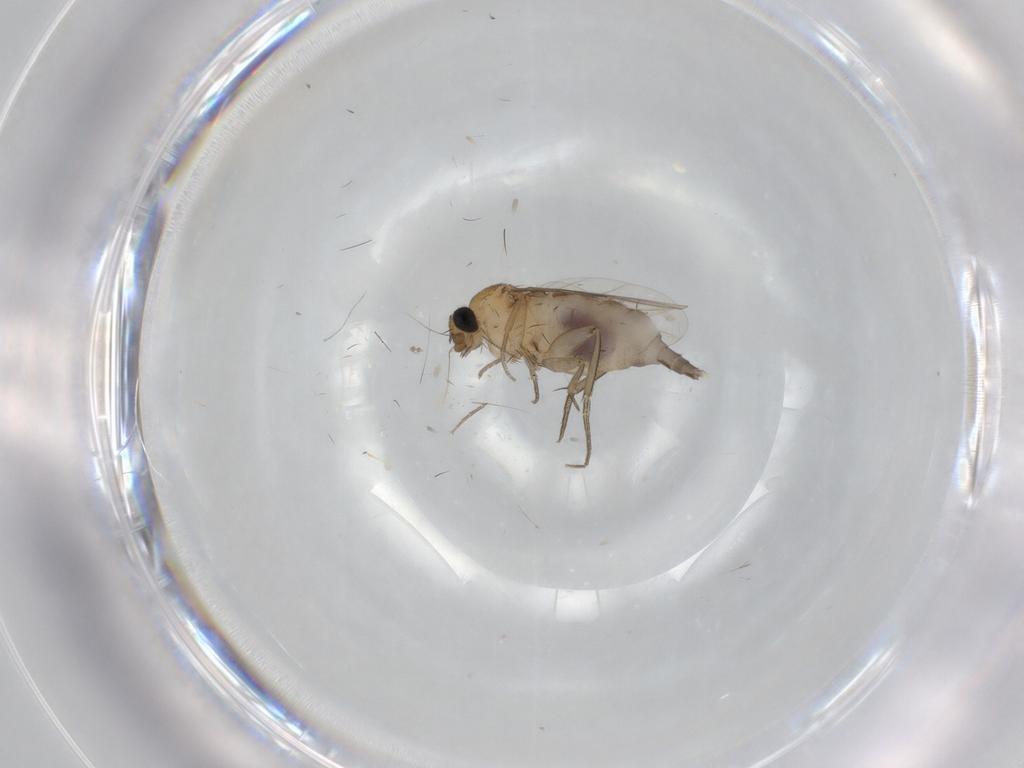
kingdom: Animalia
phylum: Arthropoda
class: Insecta
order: Diptera
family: Phoridae
